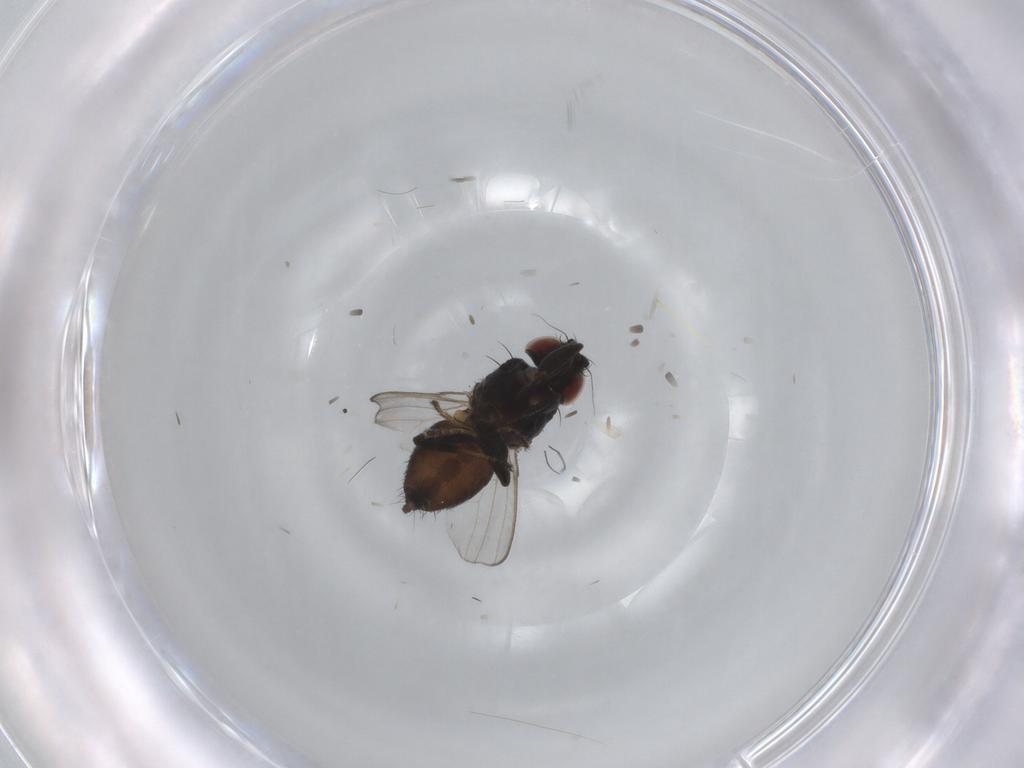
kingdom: Animalia
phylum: Arthropoda
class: Insecta
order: Diptera
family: Milichiidae
